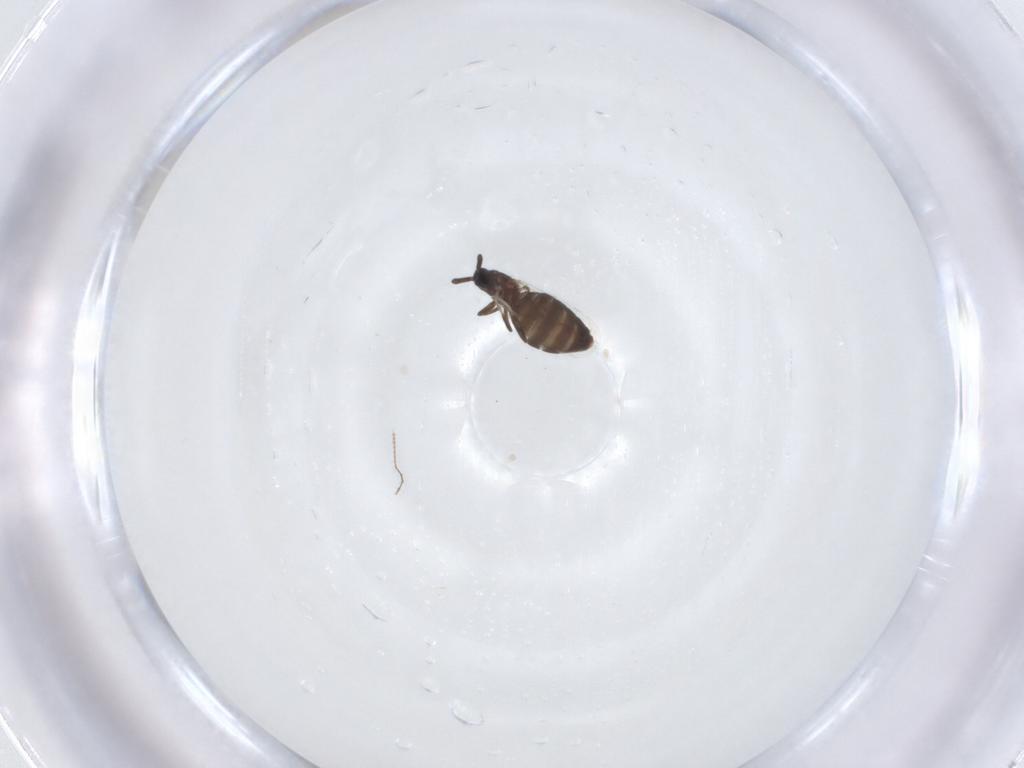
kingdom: Animalia
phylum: Arthropoda
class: Insecta
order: Diptera
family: Scatopsidae
